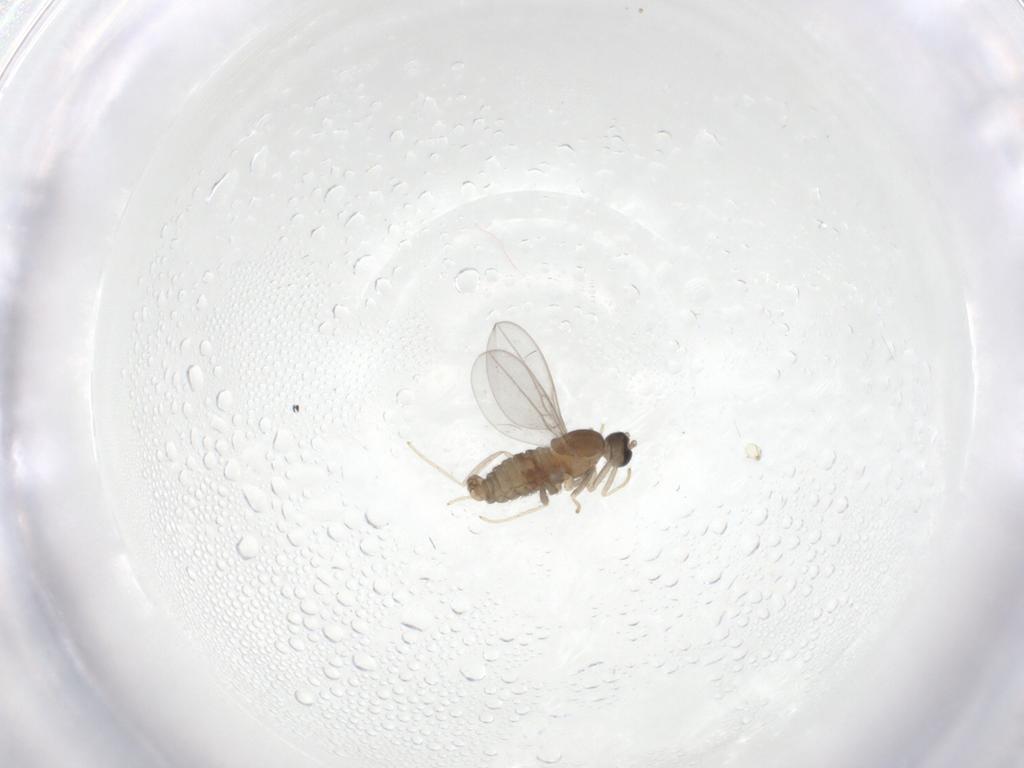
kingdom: Animalia
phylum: Arthropoda
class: Insecta
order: Diptera
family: Cecidomyiidae
